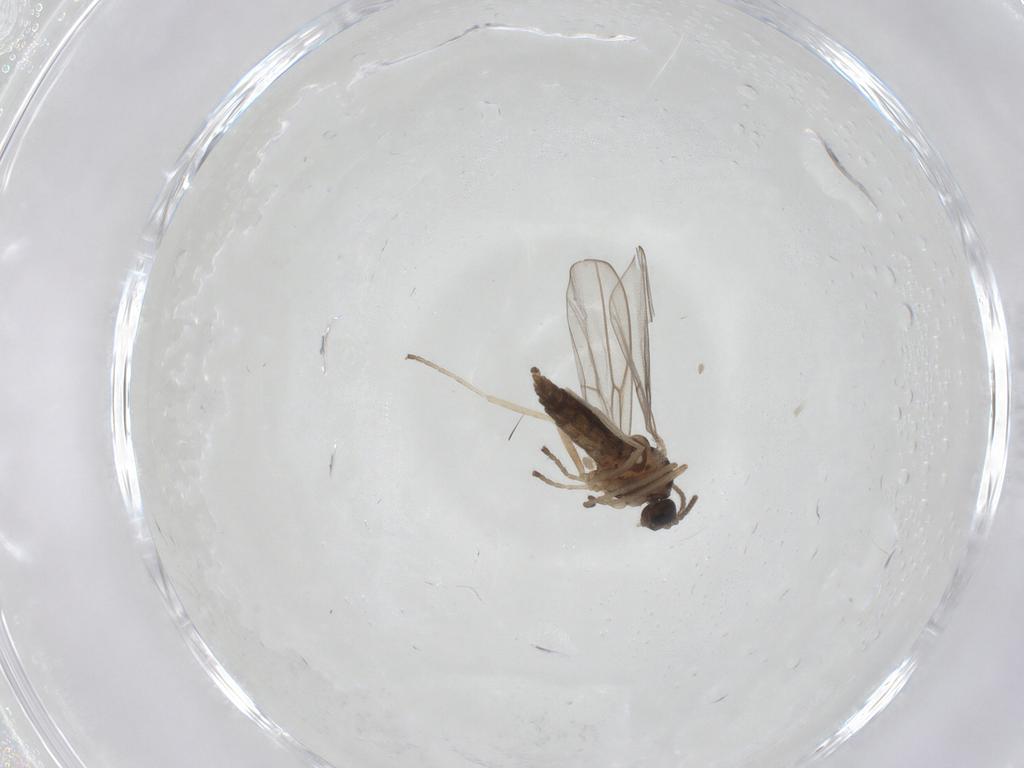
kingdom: Animalia
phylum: Arthropoda
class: Insecta
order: Diptera
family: Cecidomyiidae
